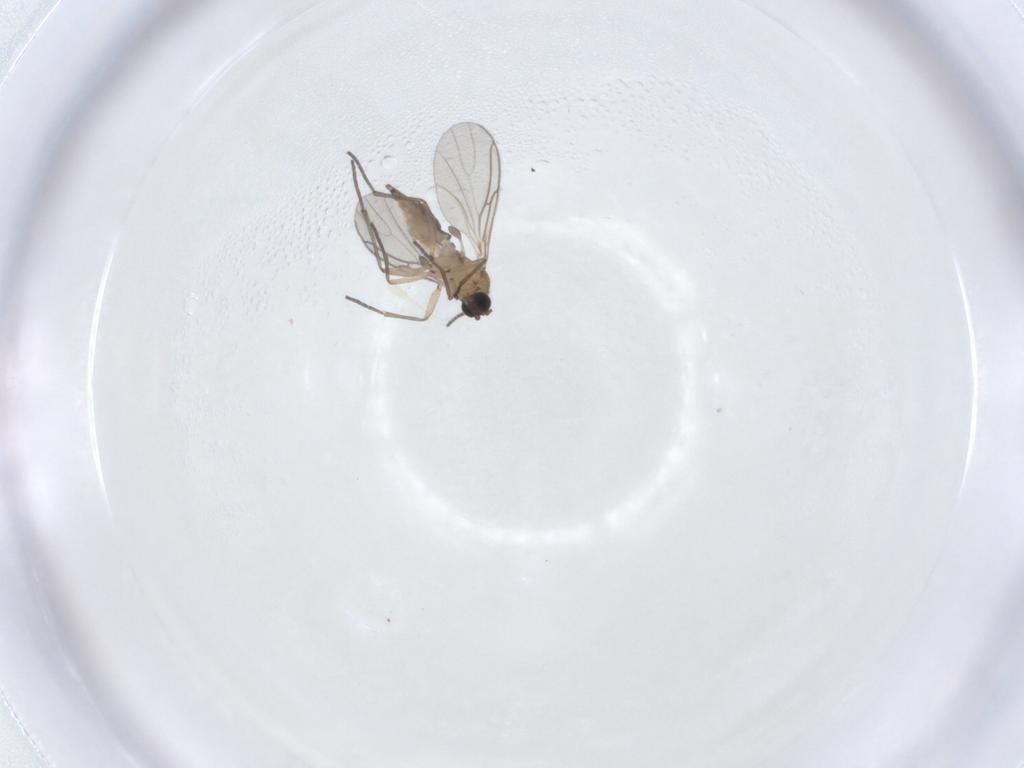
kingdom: Animalia
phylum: Arthropoda
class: Insecta
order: Diptera
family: Sciaridae
